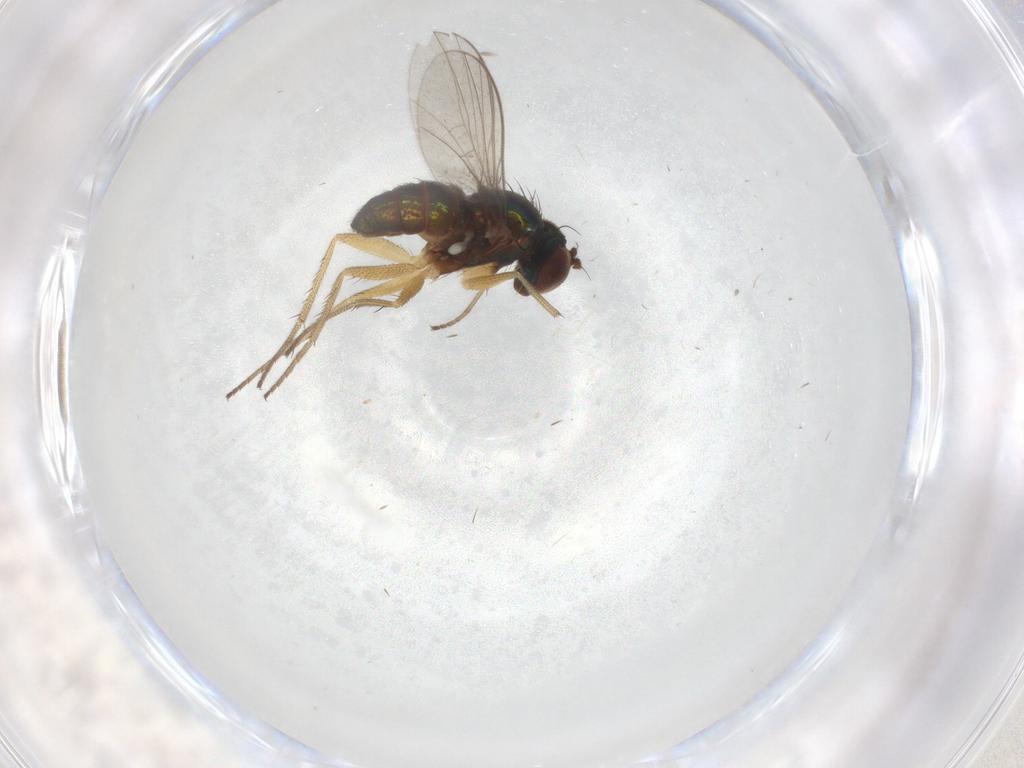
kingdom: Animalia
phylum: Arthropoda
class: Insecta
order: Diptera
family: Dolichopodidae
